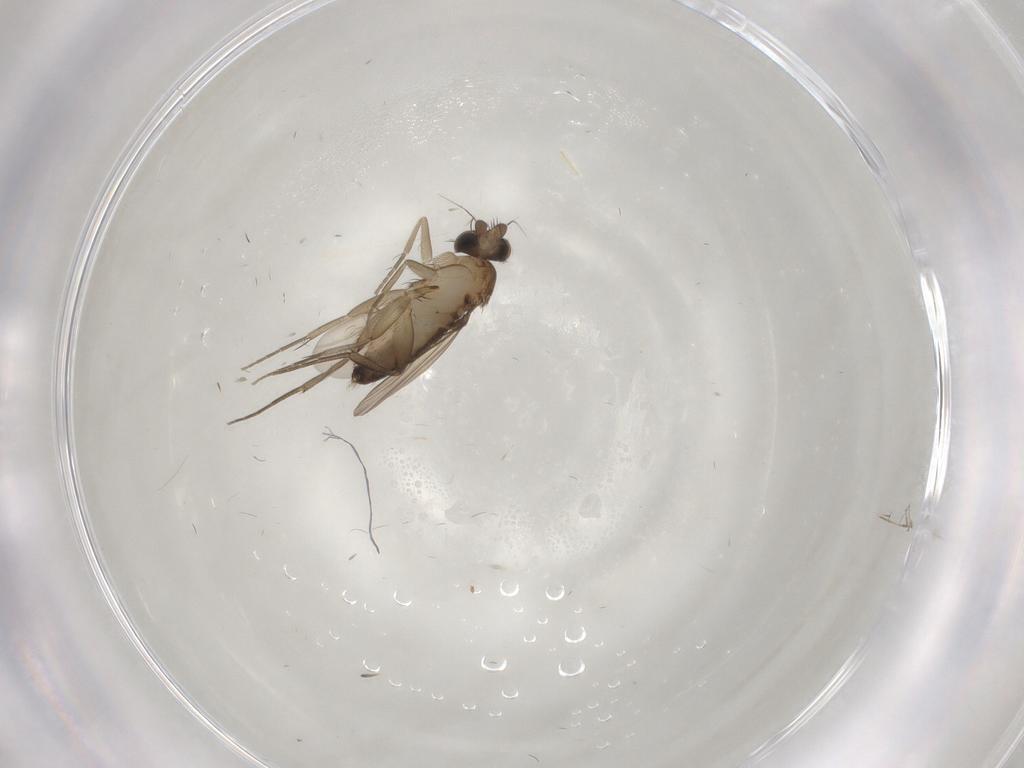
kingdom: Animalia
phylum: Arthropoda
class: Insecta
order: Diptera
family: Phoridae
